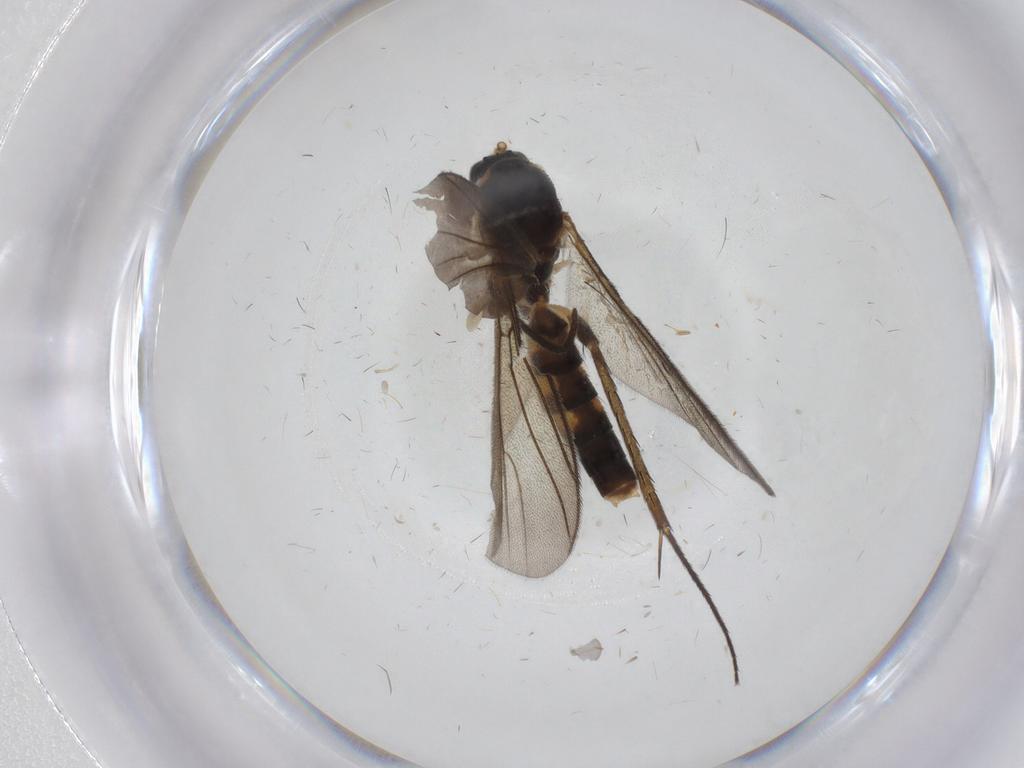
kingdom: Animalia
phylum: Arthropoda
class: Insecta
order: Diptera
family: Mycetophilidae
